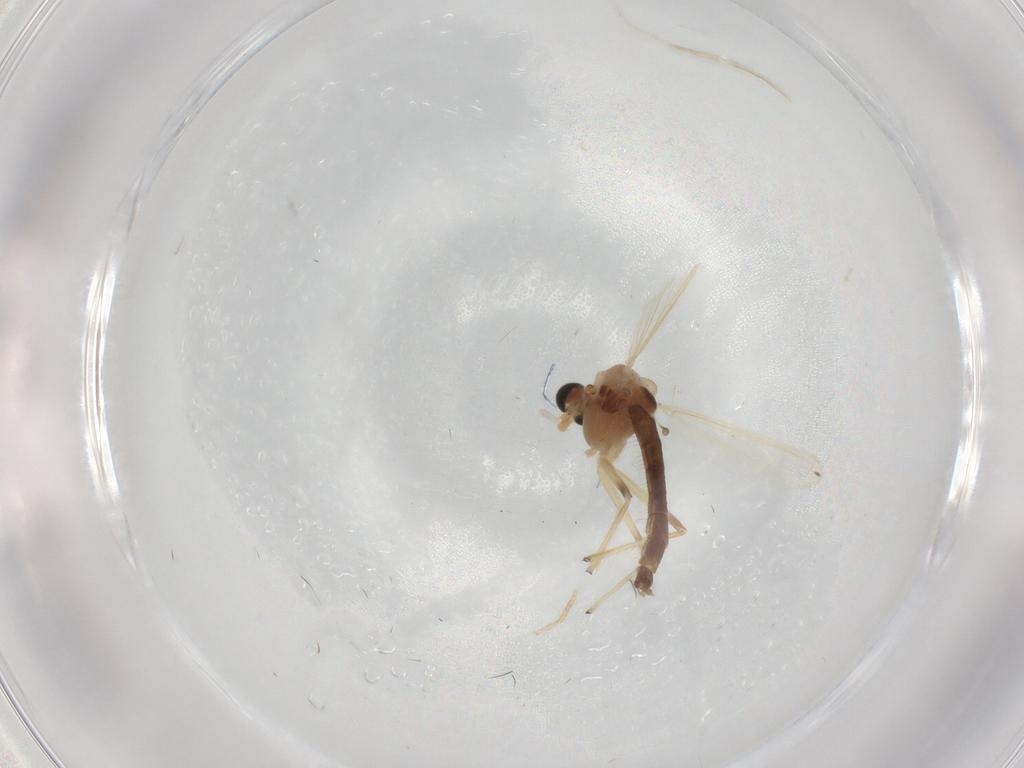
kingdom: Animalia
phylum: Arthropoda
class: Insecta
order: Diptera
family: Chironomidae
